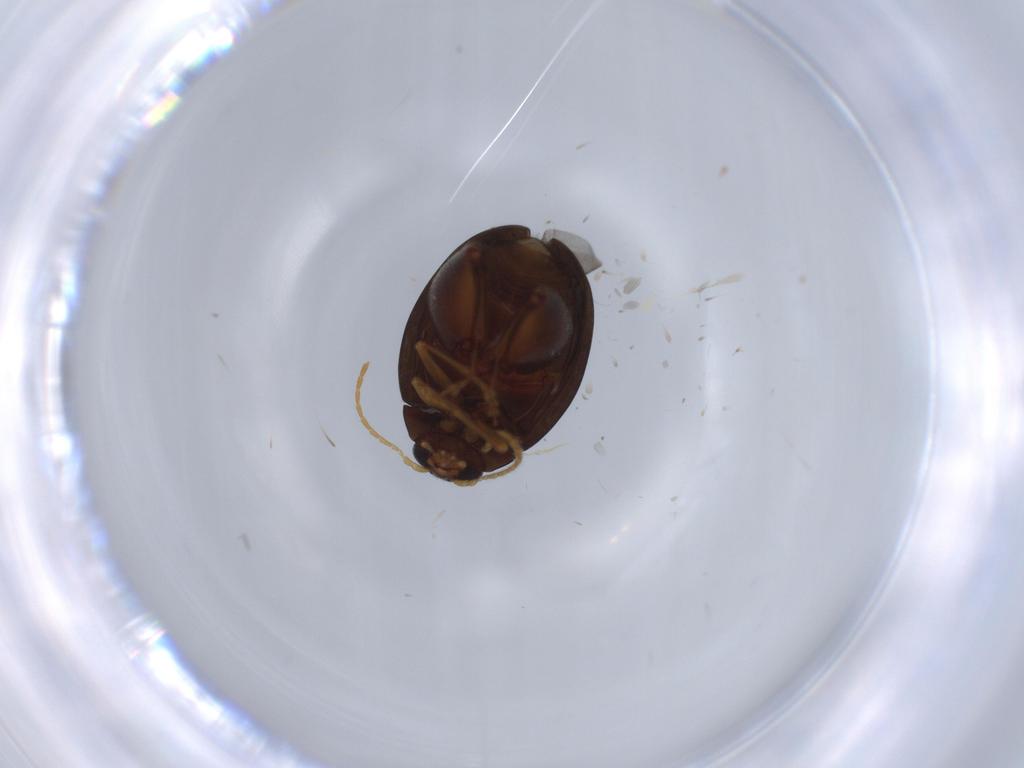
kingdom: Animalia
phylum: Arthropoda
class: Insecta
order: Coleoptera
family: Chrysomelidae
